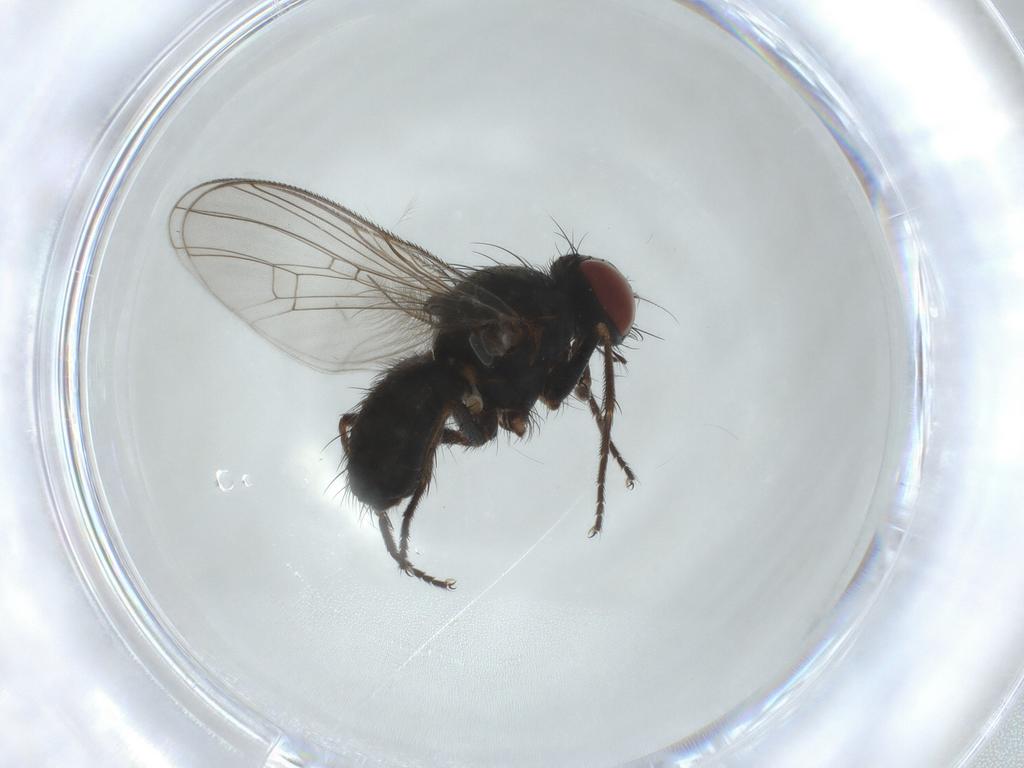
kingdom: Animalia
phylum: Arthropoda
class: Insecta
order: Diptera
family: Muscidae
